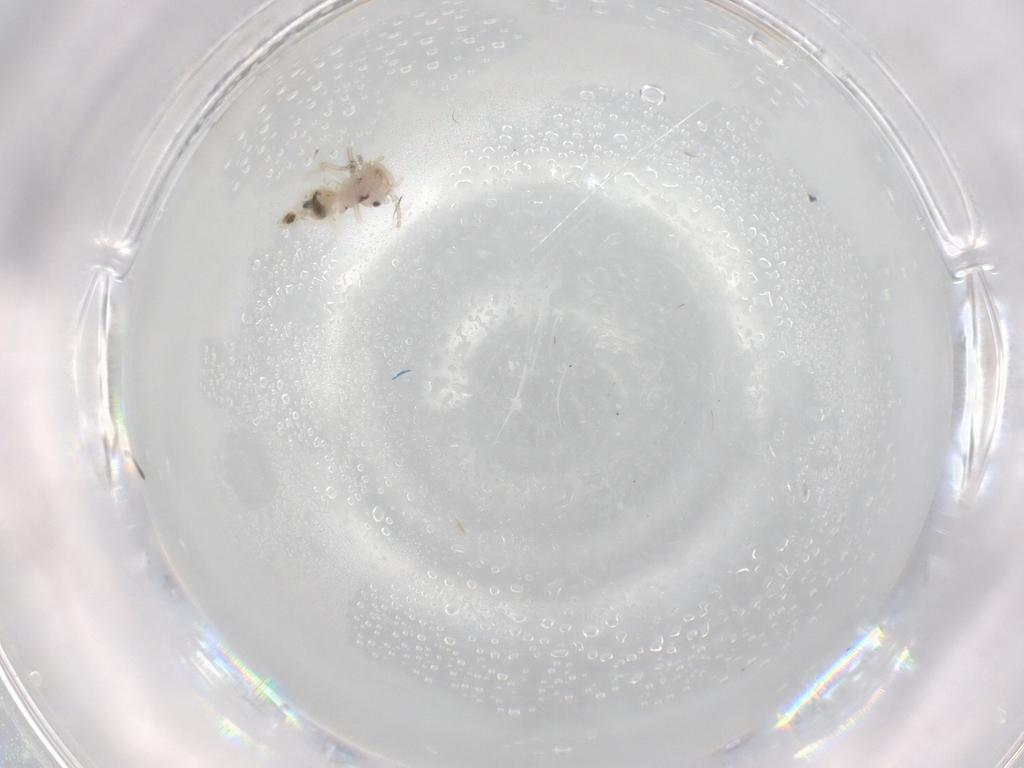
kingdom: Animalia
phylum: Arthropoda
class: Insecta
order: Psocodea
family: Amphipsocidae
